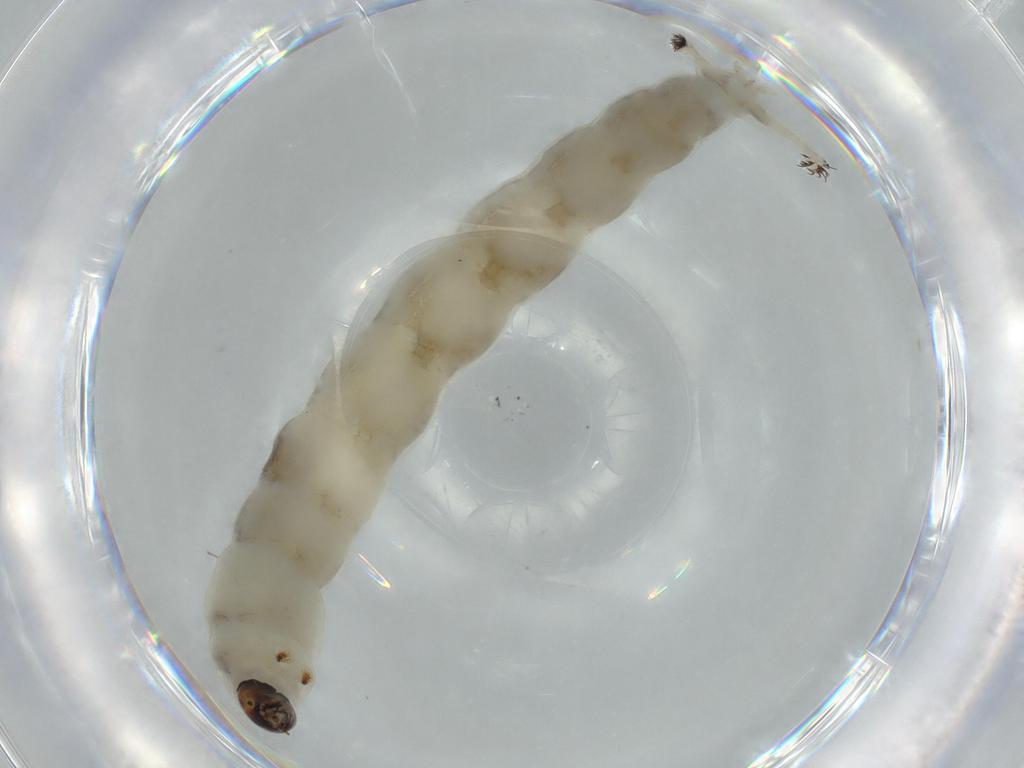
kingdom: Animalia
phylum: Arthropoda
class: Insecta
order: Diptera
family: Chironomidae
